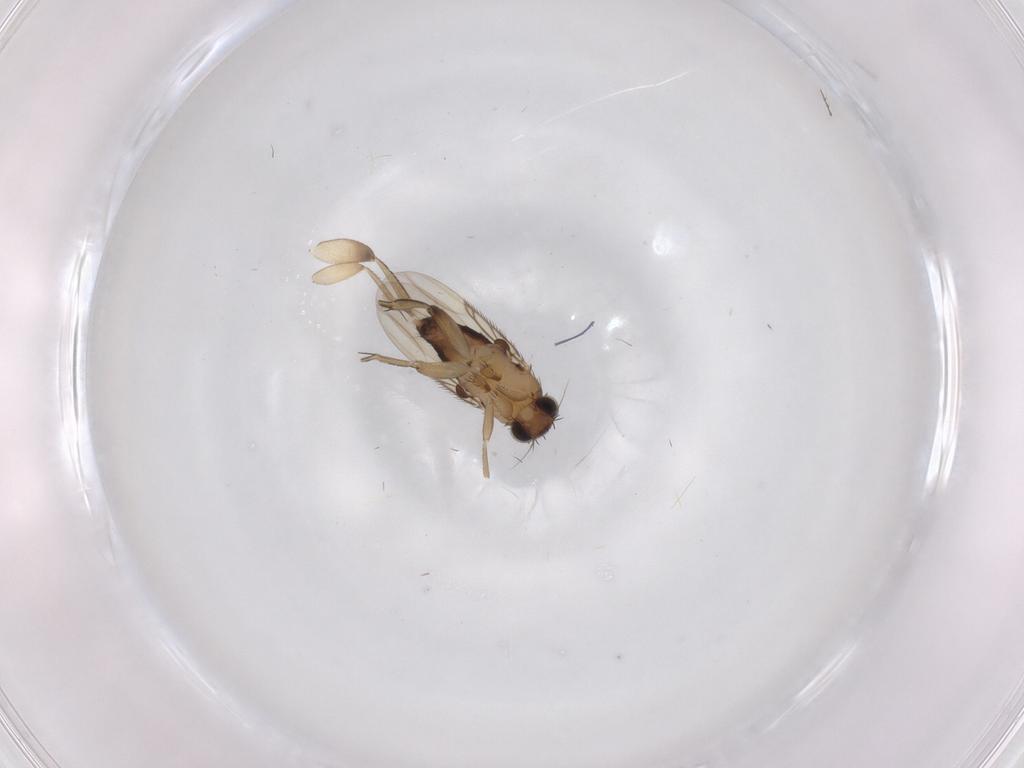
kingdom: Animalia
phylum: Arthropoda
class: Insecta
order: Diptera
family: Phoridae
